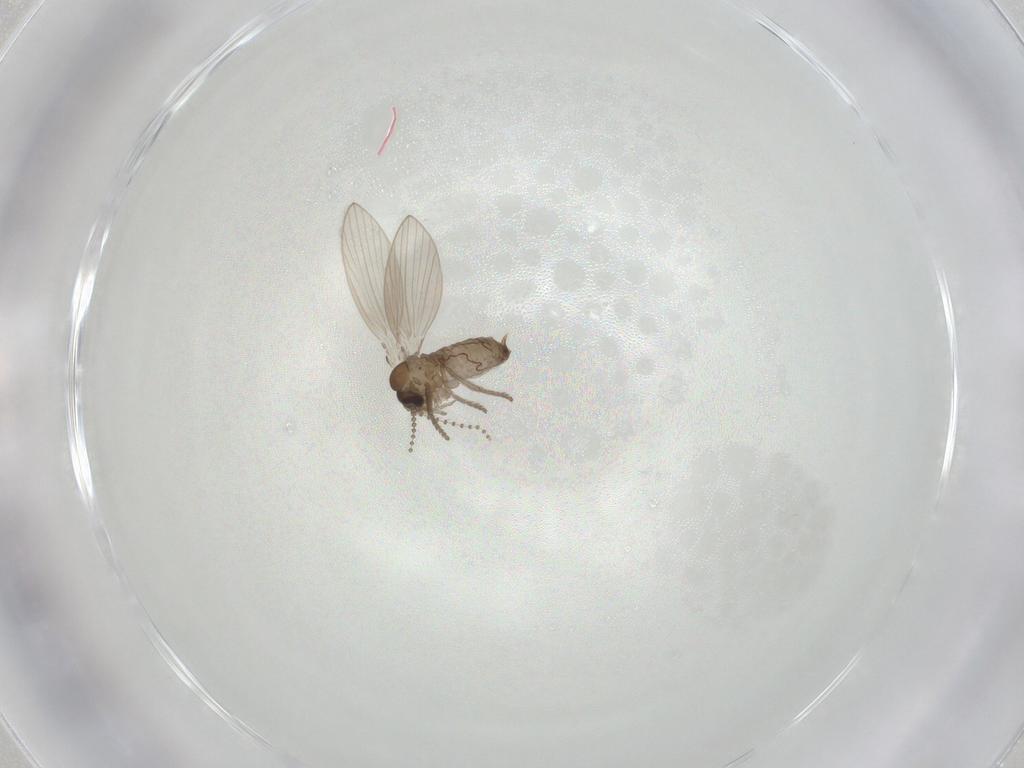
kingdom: Animalia
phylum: Arthropoda
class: Insecta
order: Diptera
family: Psychodidae
